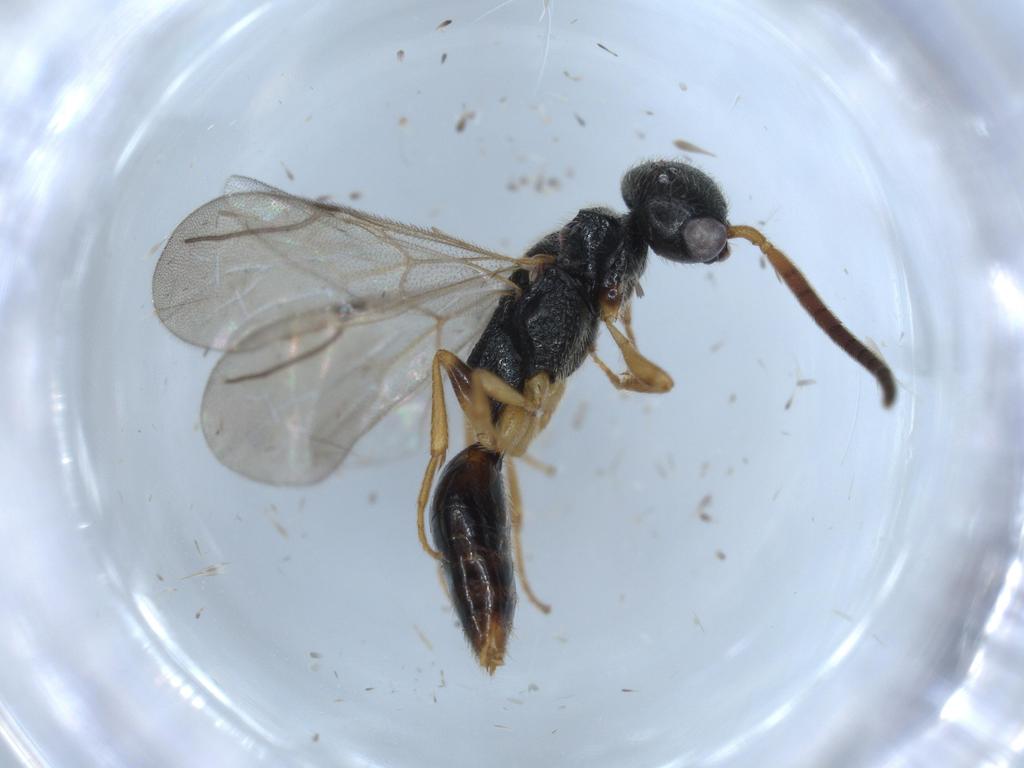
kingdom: Animalia
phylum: Arthropoda
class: Insecta
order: Hymenoptera
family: Bethylidae
